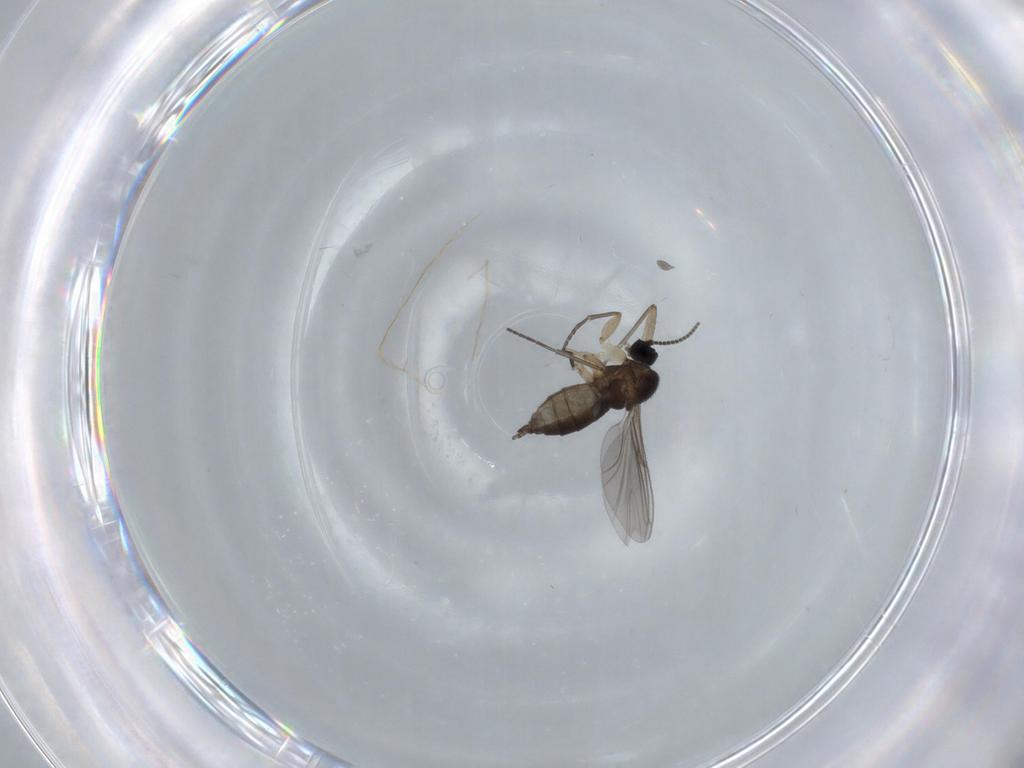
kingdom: Animalia
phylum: Arthropoda
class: Insecta
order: Diptera
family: Sciaridae
